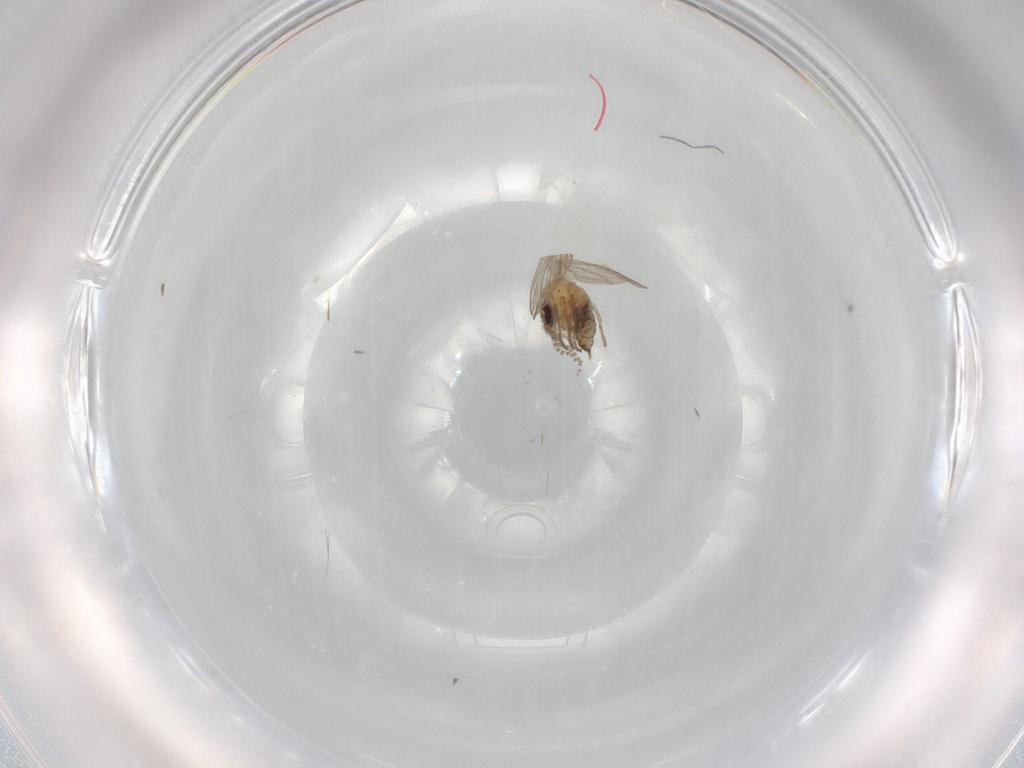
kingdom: Animalia
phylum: Arthropoda
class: Insecta
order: Diptera
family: Psychodidae
